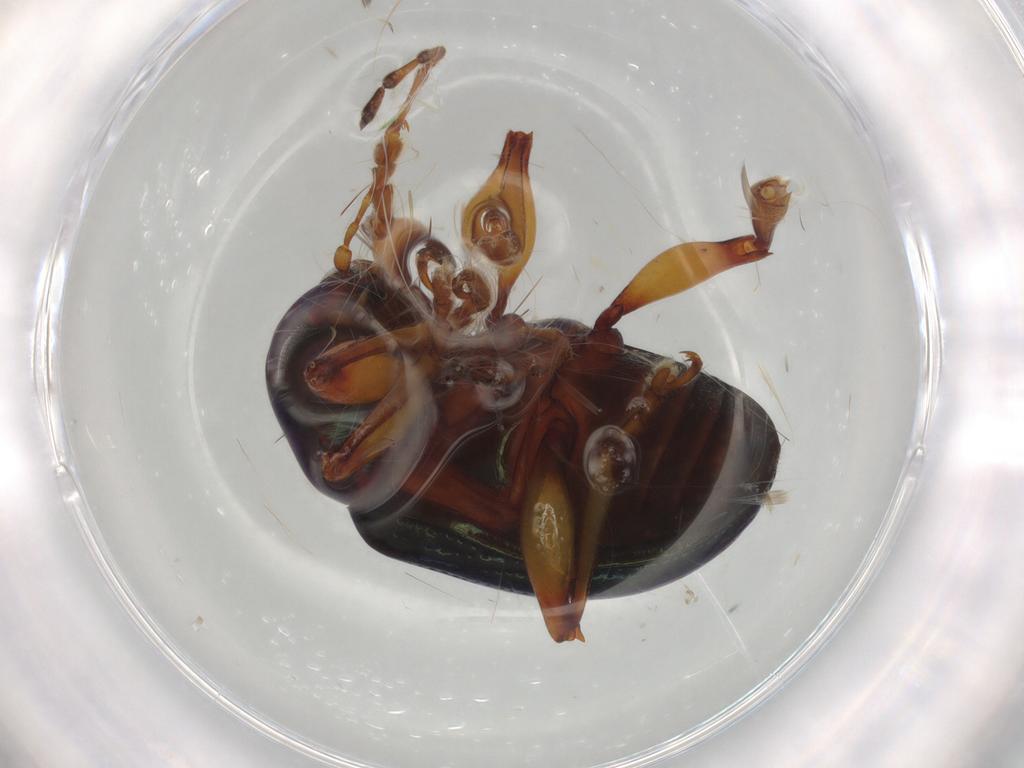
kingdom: Animalia
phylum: Arthropoda
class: Insecta
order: Coleoptera
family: Chrysomelidae
